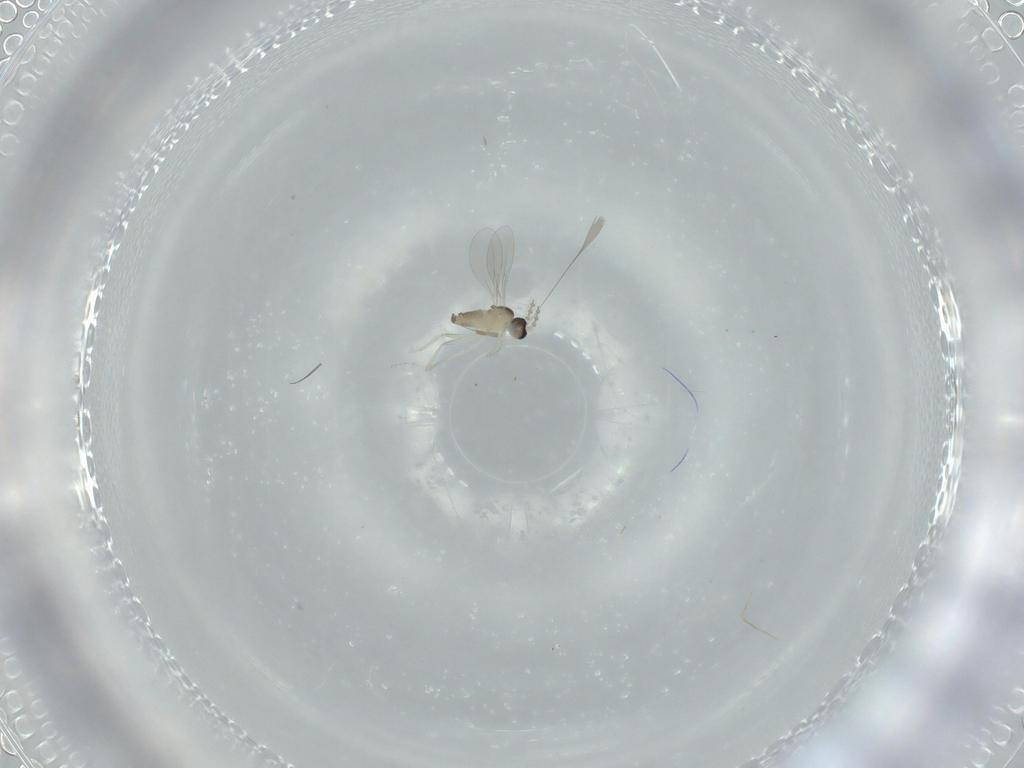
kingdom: Animalia
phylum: Arthropoda
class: Insecta
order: Diptera
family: Cecidomyiidae
